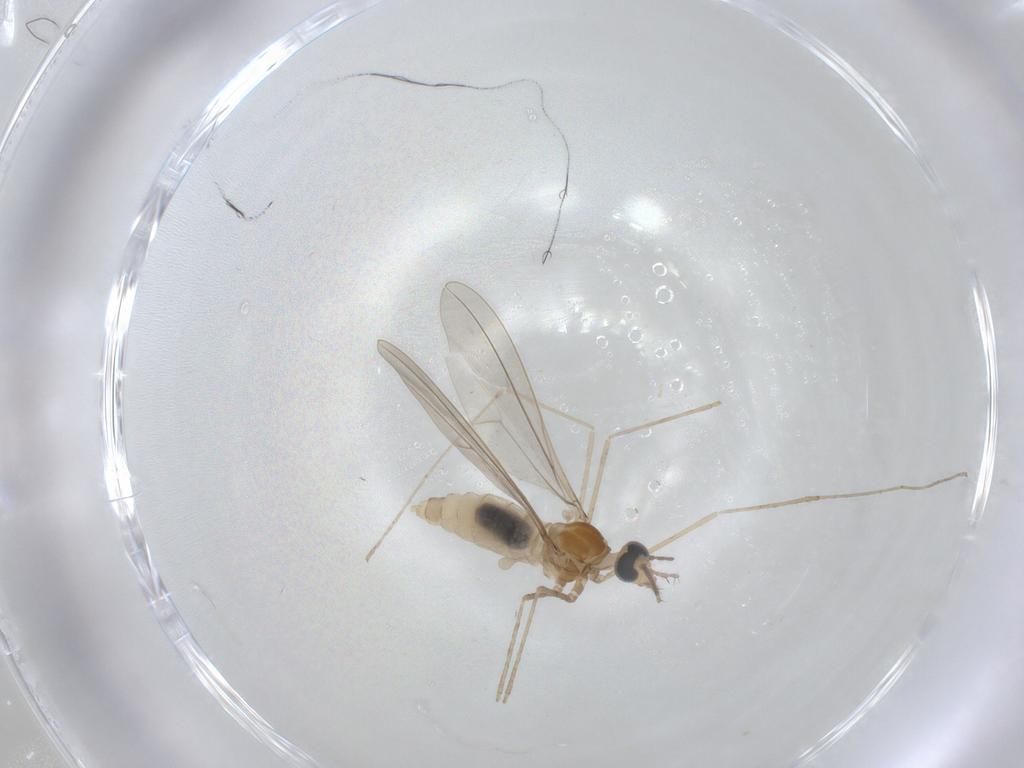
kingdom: Animalia
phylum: Arthropoda
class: Insecta
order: Diptera
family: Cecidomyiidae
